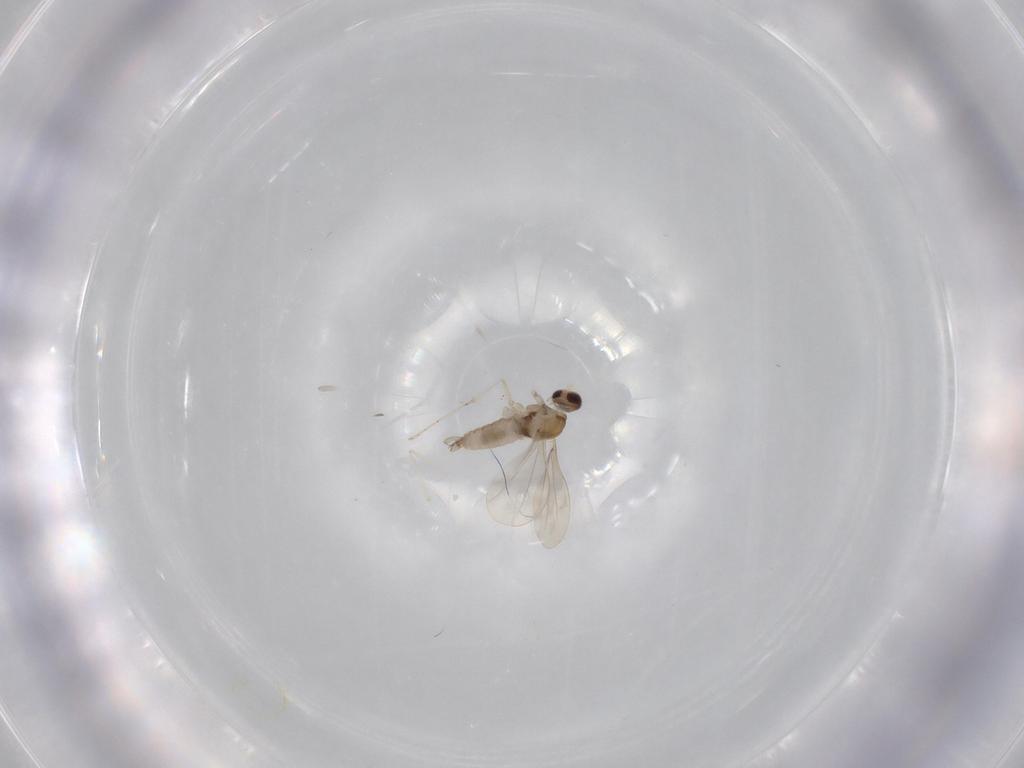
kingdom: Animalia
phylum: Arthropoda
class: Insecta
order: Diptera
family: Cecidomyiidae
